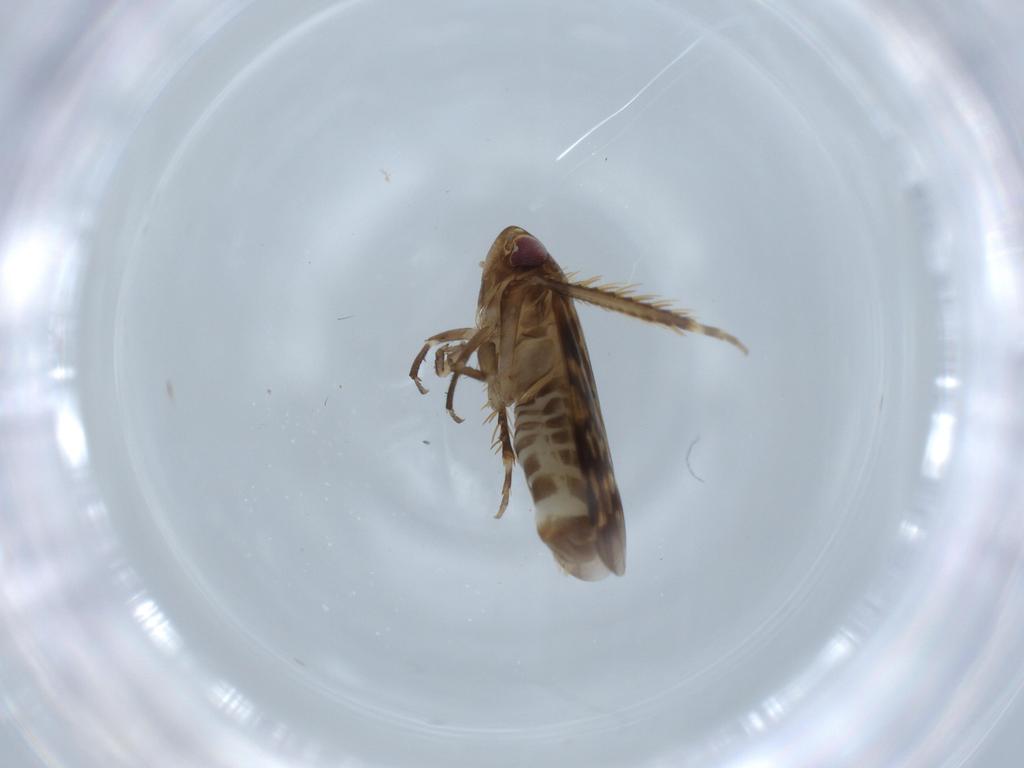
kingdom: Animalia
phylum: Arthropoda
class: Insecta
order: Hemiptera
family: Cicadellidae
